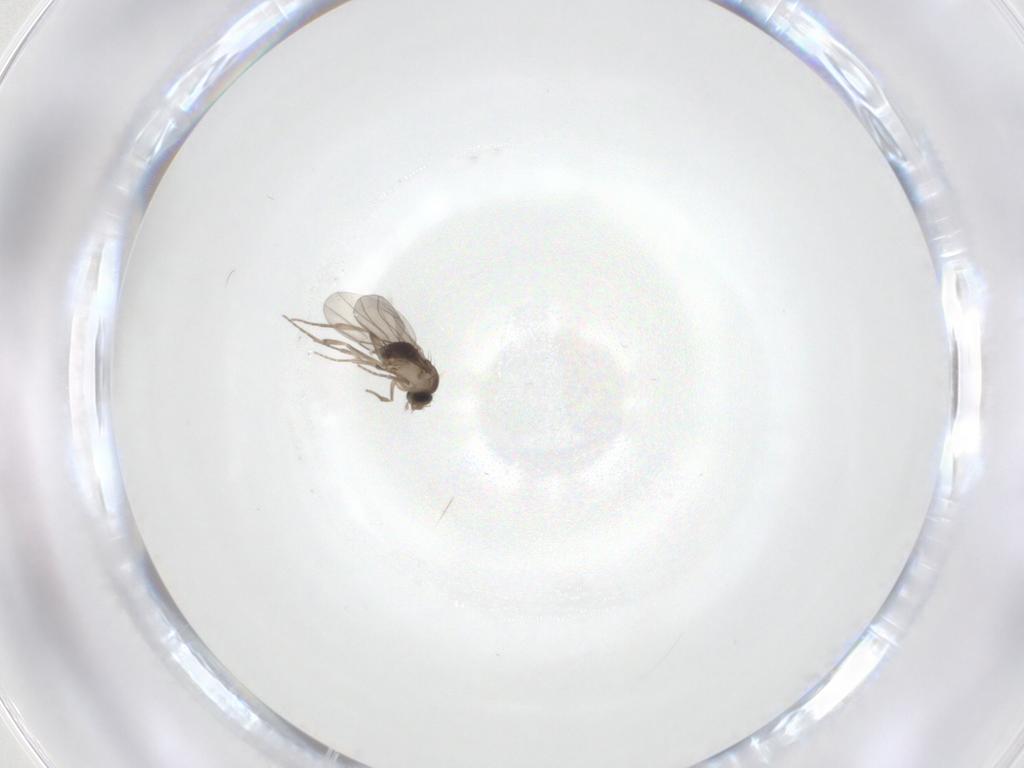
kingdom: Animalia
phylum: Arthropoda
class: Insecta
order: Diptera
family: Phoridae
